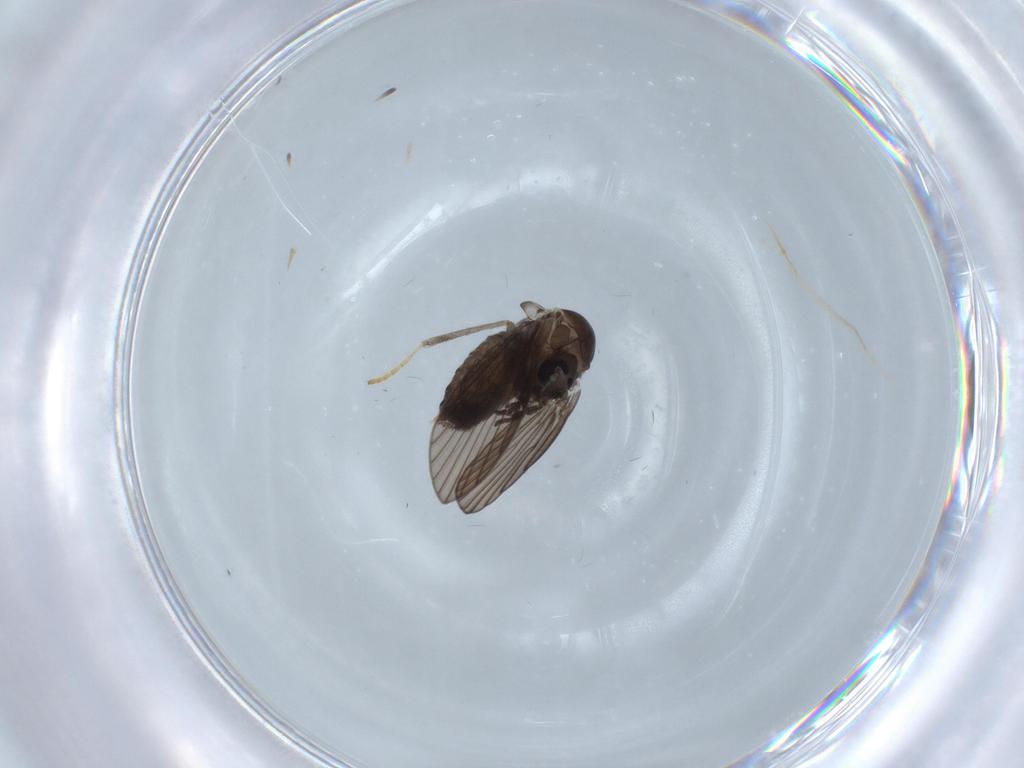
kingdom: Animalia
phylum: Arthropoda
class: Insecta
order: Diptera
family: Psychodidae
